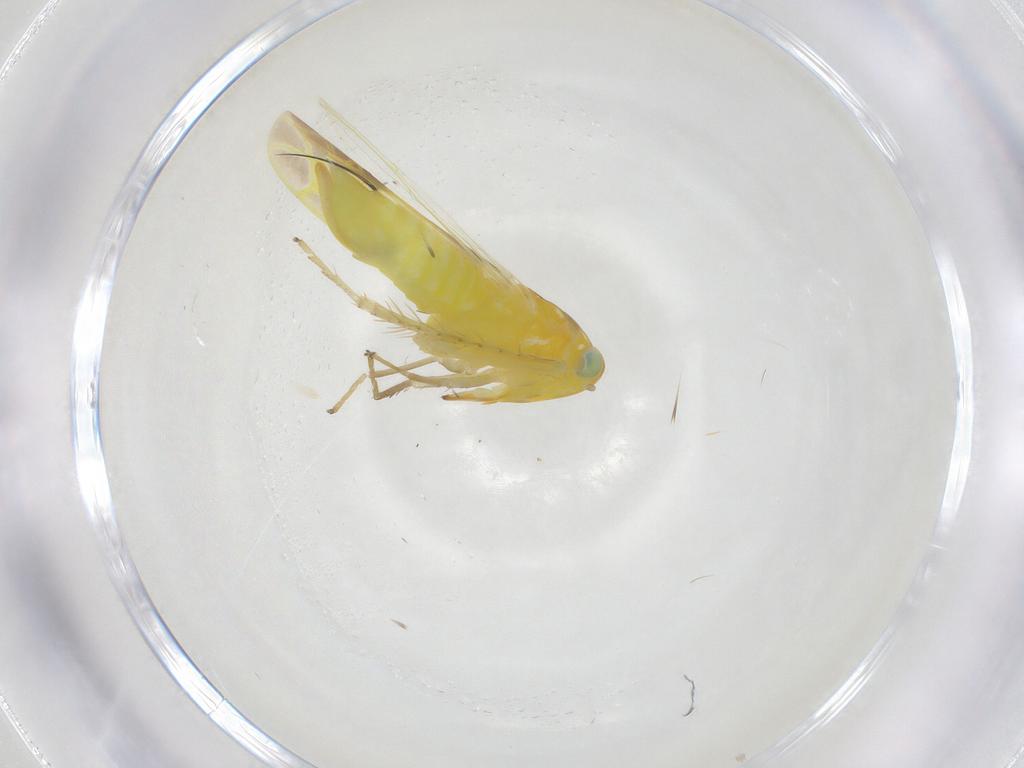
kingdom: Animalia
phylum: Arthropoda
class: Insecta
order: Hemiptera
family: Cicadellidae
